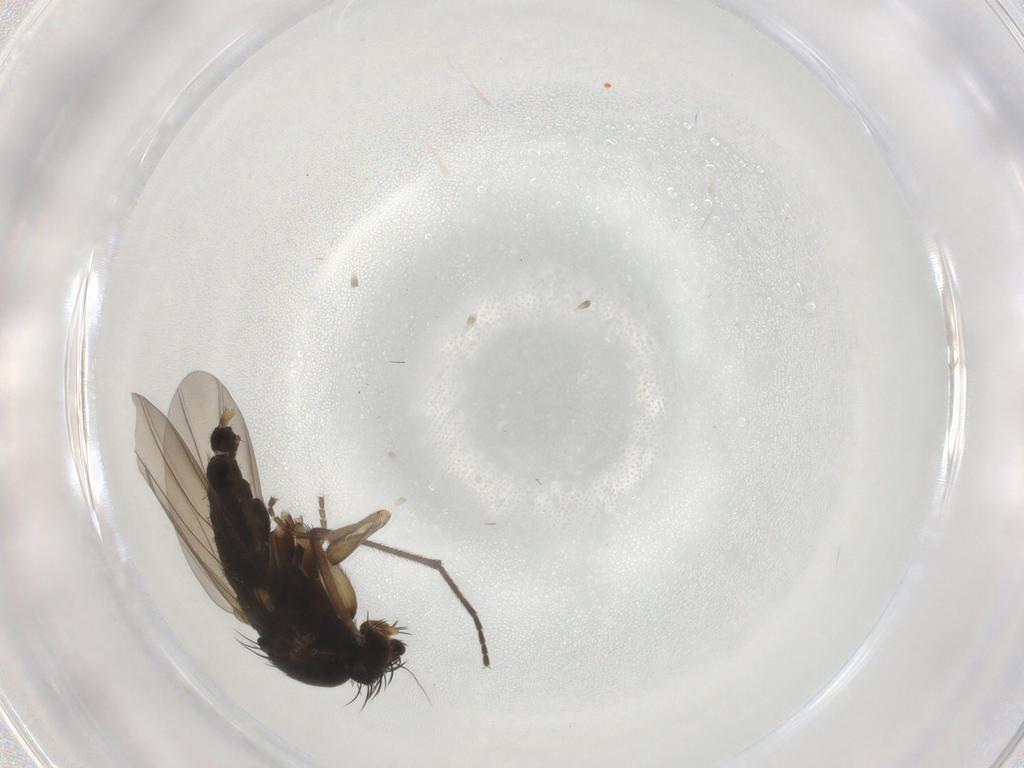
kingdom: Animalia
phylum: Arthropoda
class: Insecta
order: Diptera
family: Phoridae
